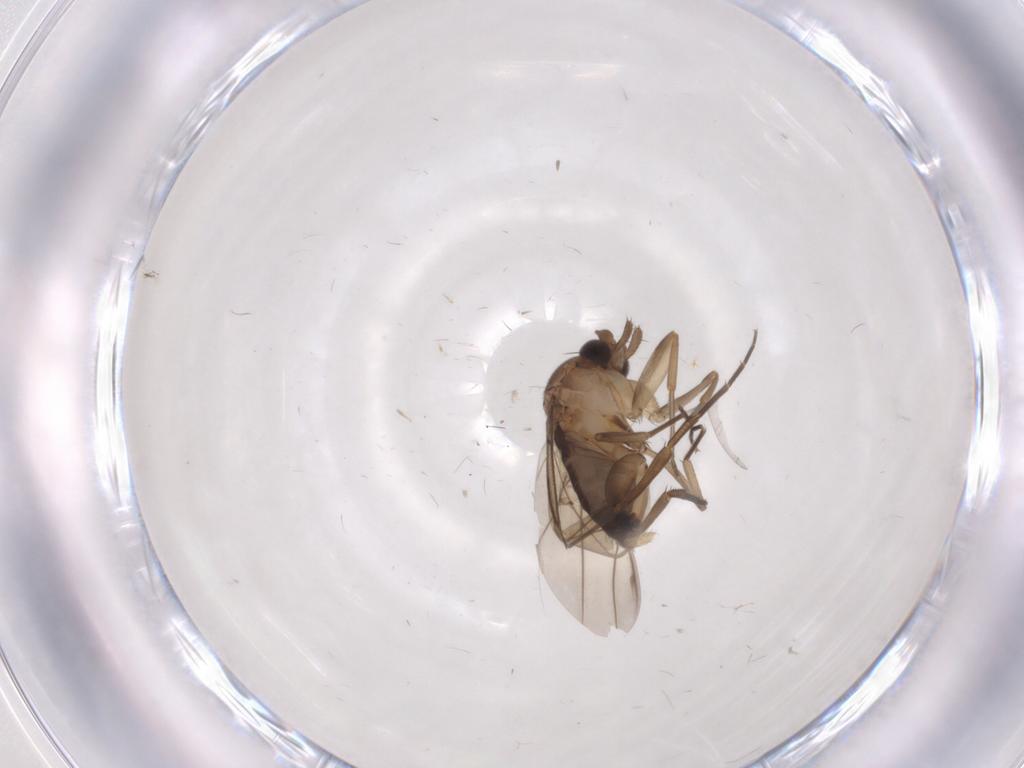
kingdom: Animalia
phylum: Arthropoda
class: Insecta
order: Diptera
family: Phoridae
